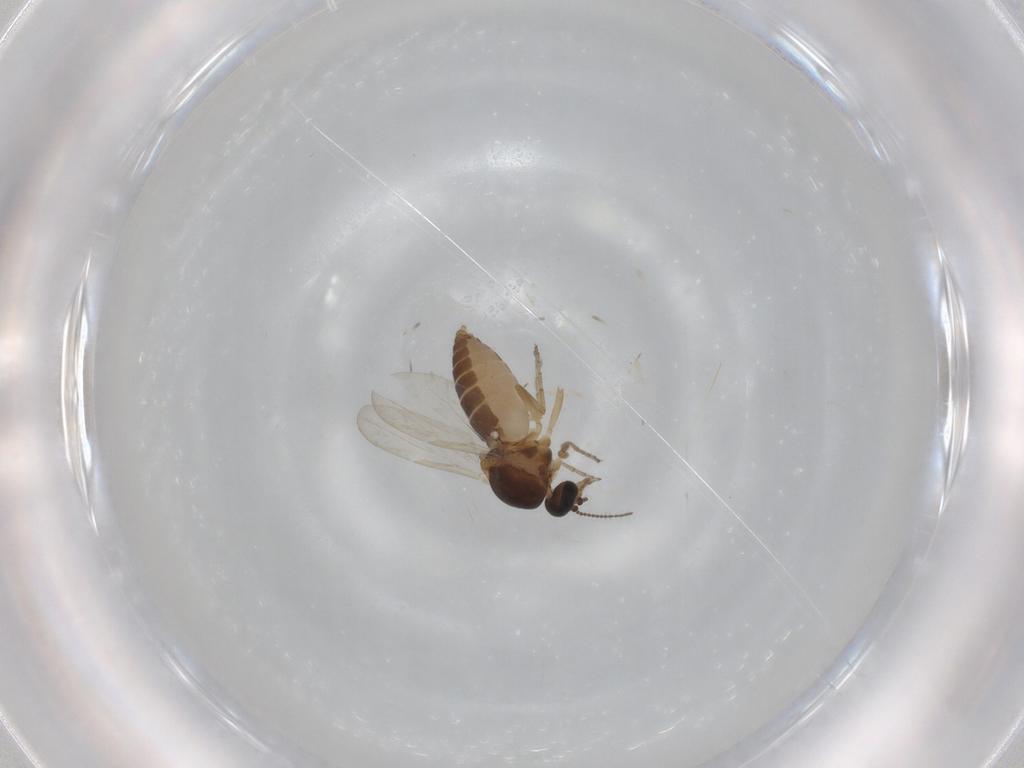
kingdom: Animalia
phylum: Arthropoda
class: Insecta
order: Diptera
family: Ceratopogonidae
